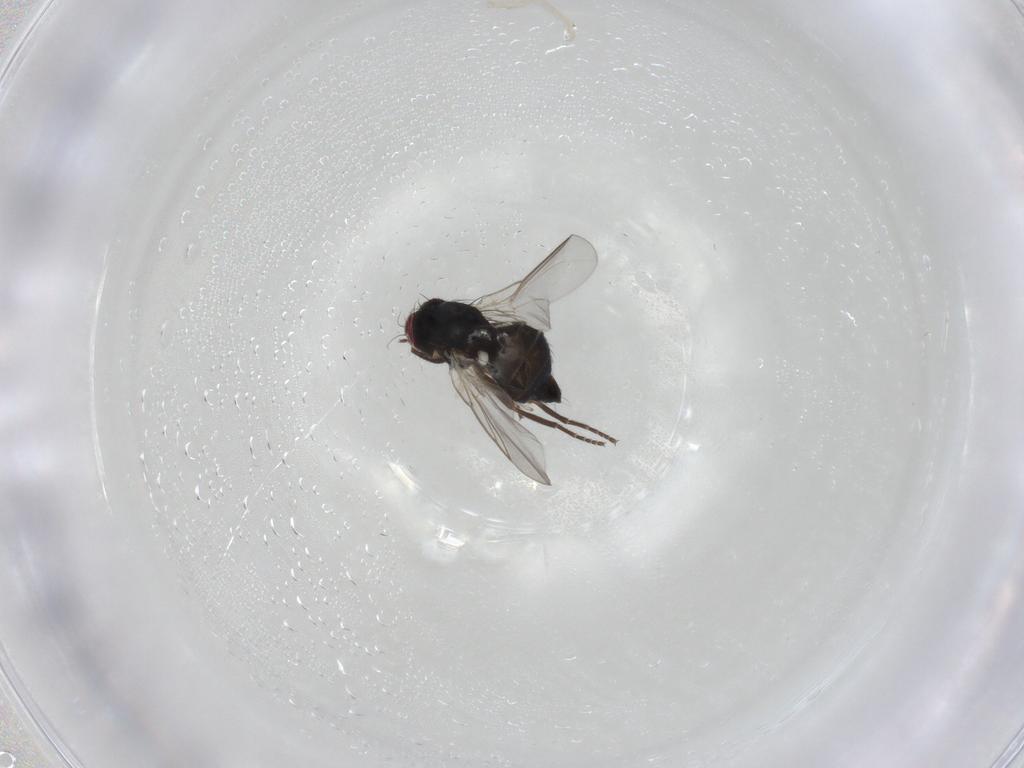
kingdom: Animalia
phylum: Arthropoda
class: Insecta
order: Diptera
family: Agromyzidae
